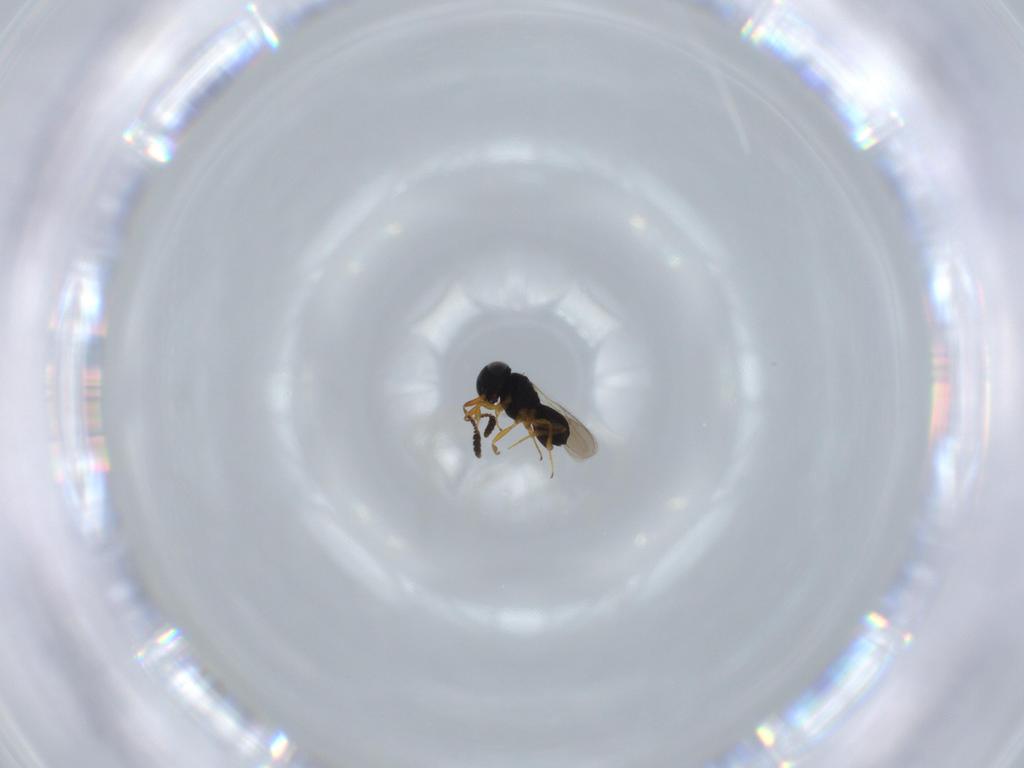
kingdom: Animalia
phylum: Arthropoda
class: Insecta
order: Hymenoptera
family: Scelionidae
